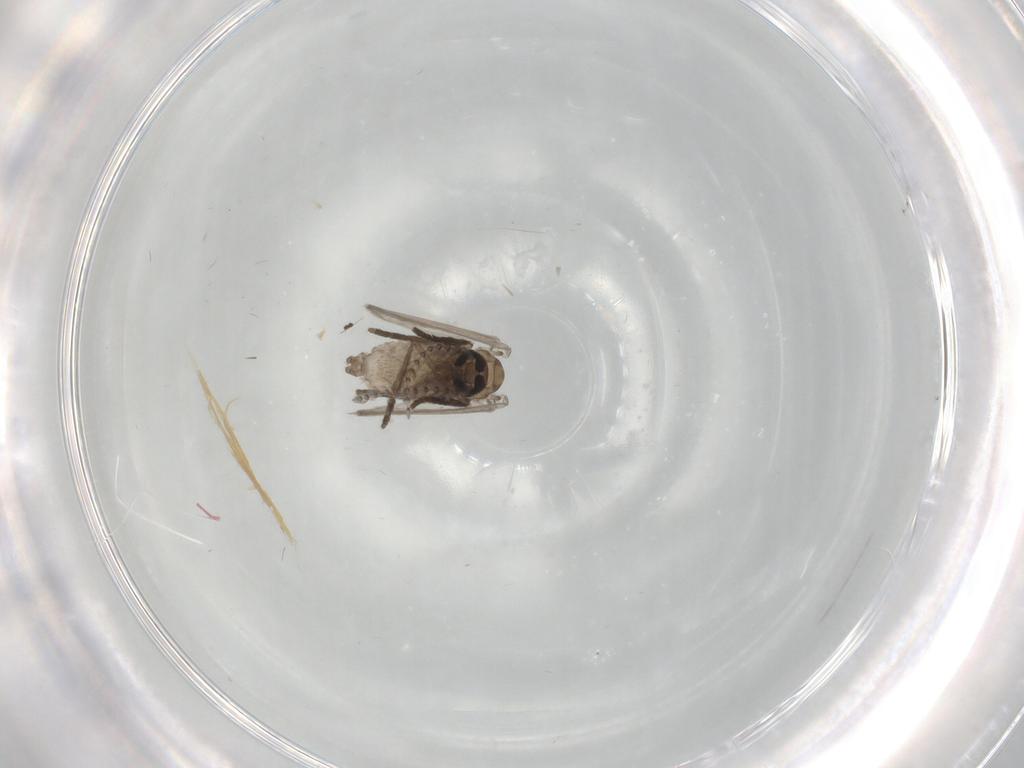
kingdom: Animalia
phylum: Arthropoda
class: Insecta
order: Diptera
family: Psychodidae
